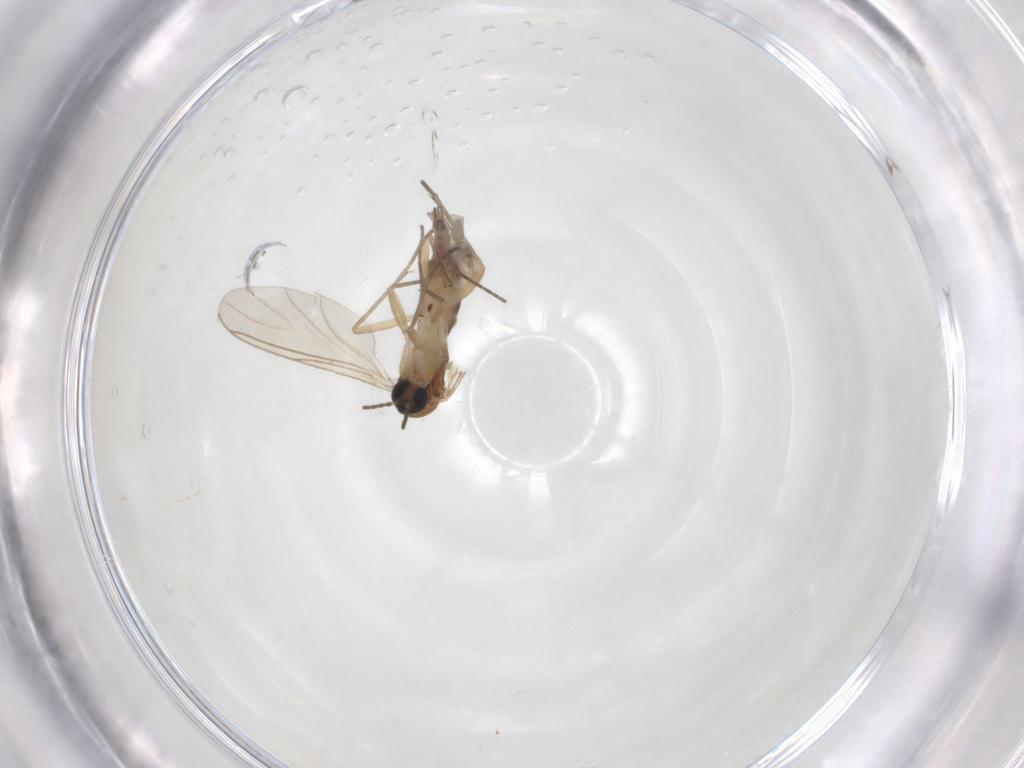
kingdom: Animalia
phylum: Arthropoda
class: Insecta
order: Diptera
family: Sciaridae
